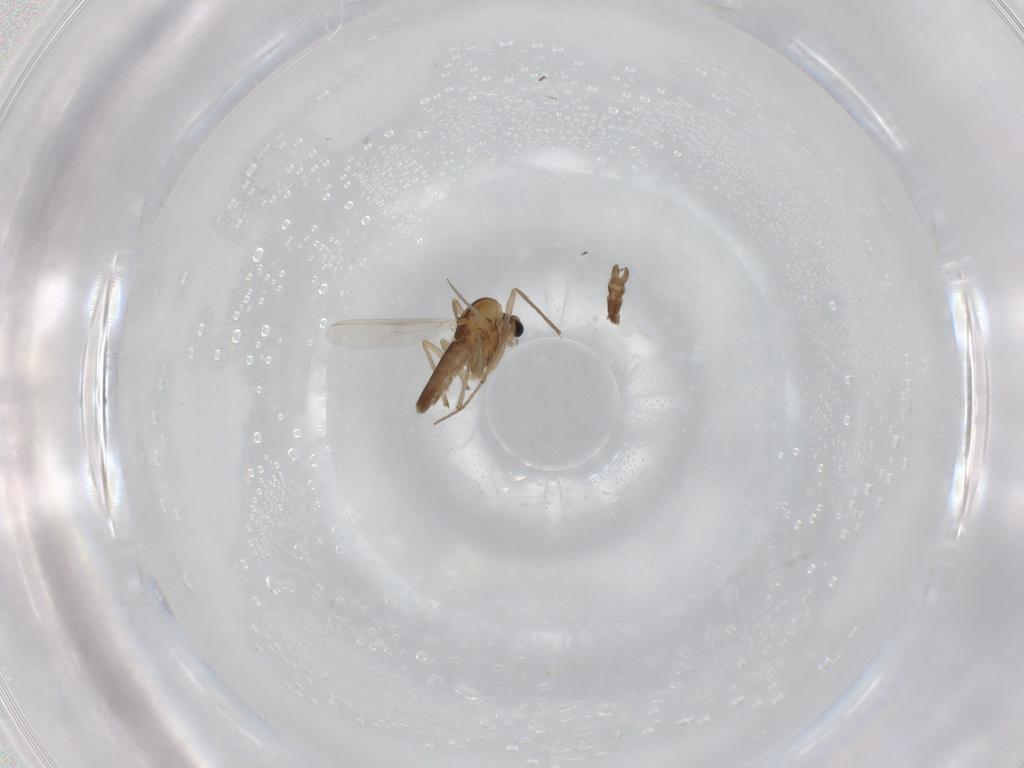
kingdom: Animalia
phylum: Arthropoda
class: Insecta
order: Diptera
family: Chironomidae
